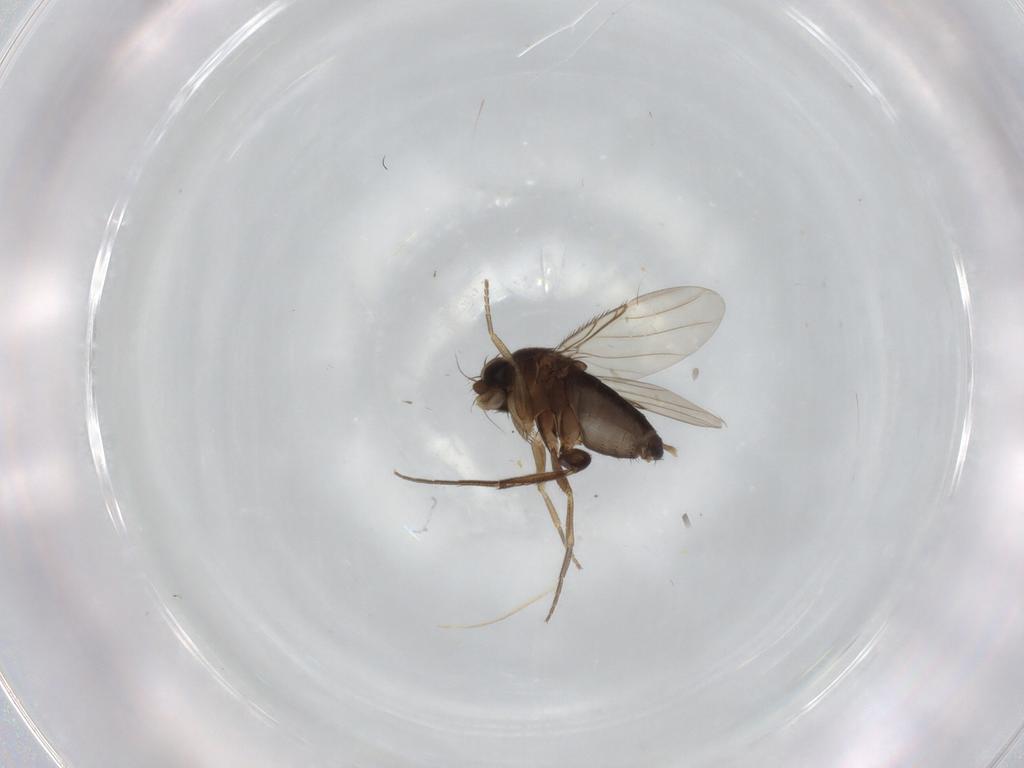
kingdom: Animalia
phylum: Arthropoda
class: Insecta
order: Diptera
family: Phoridae
